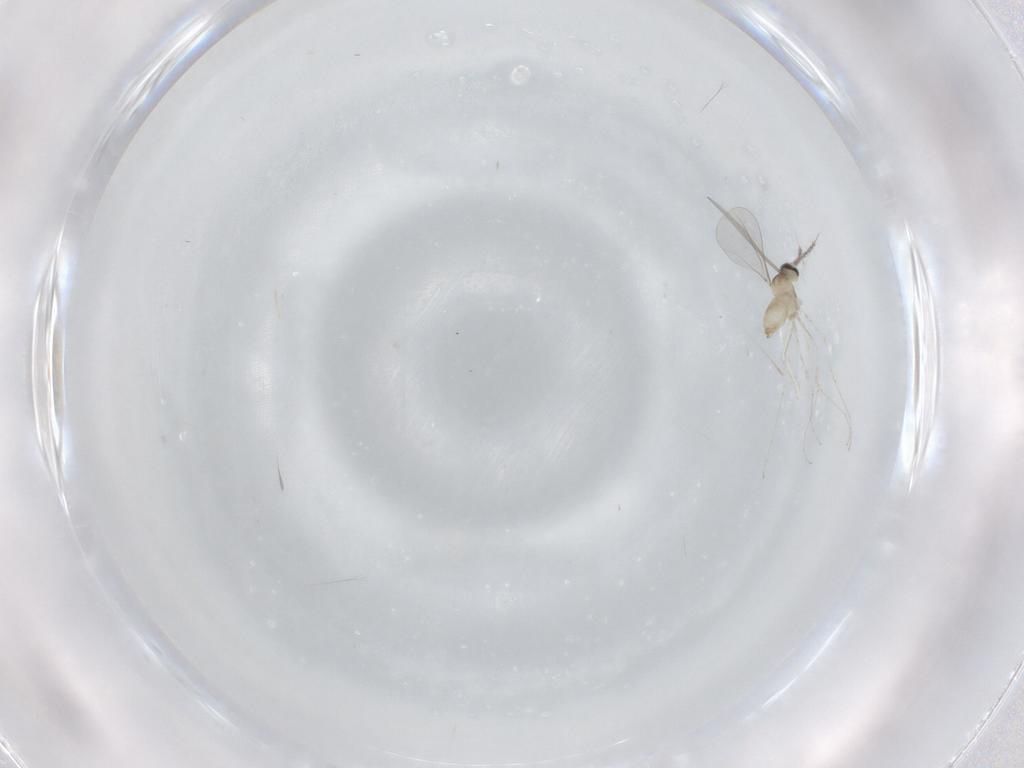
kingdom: Animalia
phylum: Arthropoda
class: Insecta
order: Diptera
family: Cecidomyiidae
